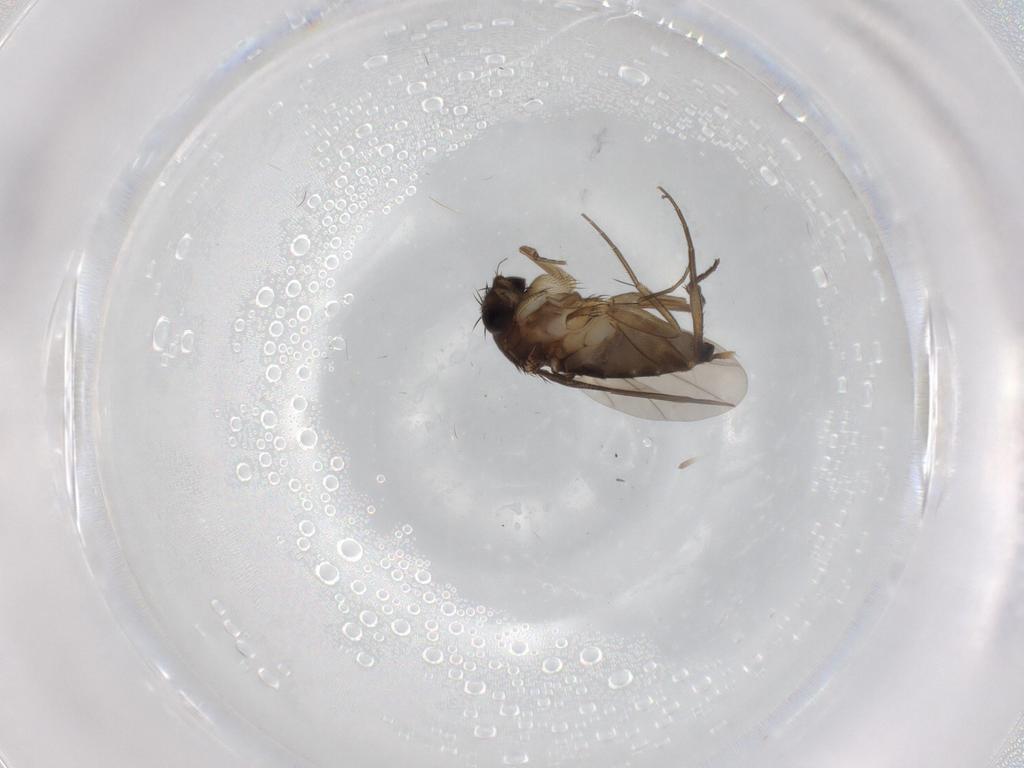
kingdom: Animalia
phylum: Arthropoda
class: Insecta
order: Diptera
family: Phoridae
